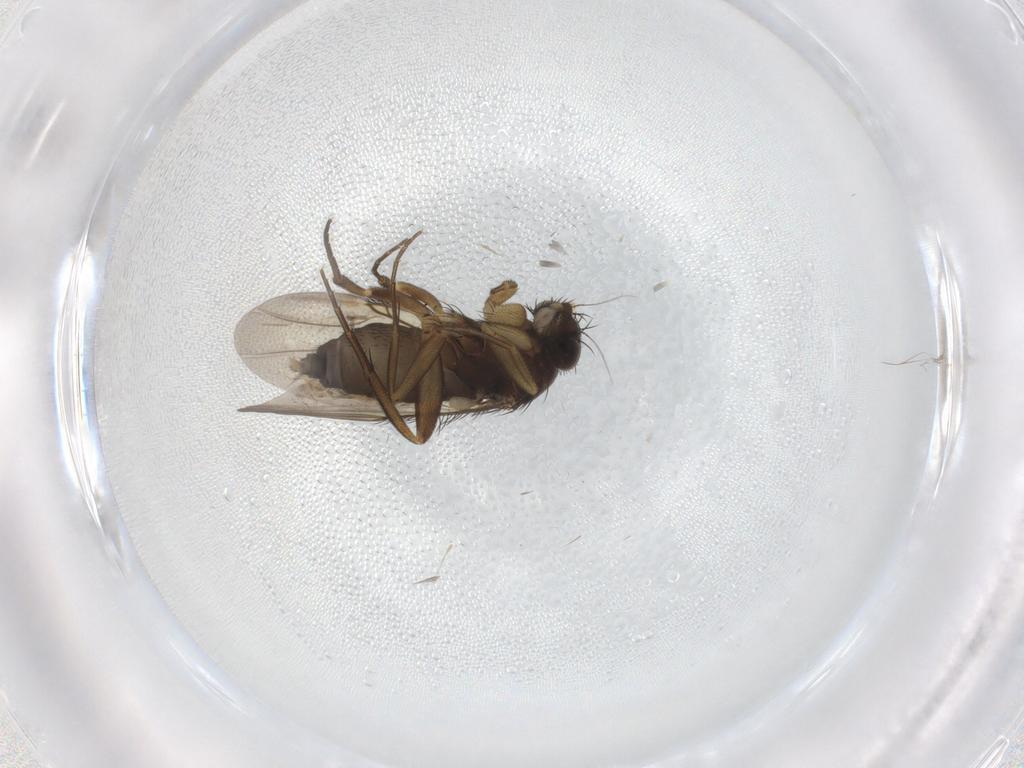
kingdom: Animalia
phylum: Arthropoda
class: Insecta
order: Diptera
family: Phoridae
